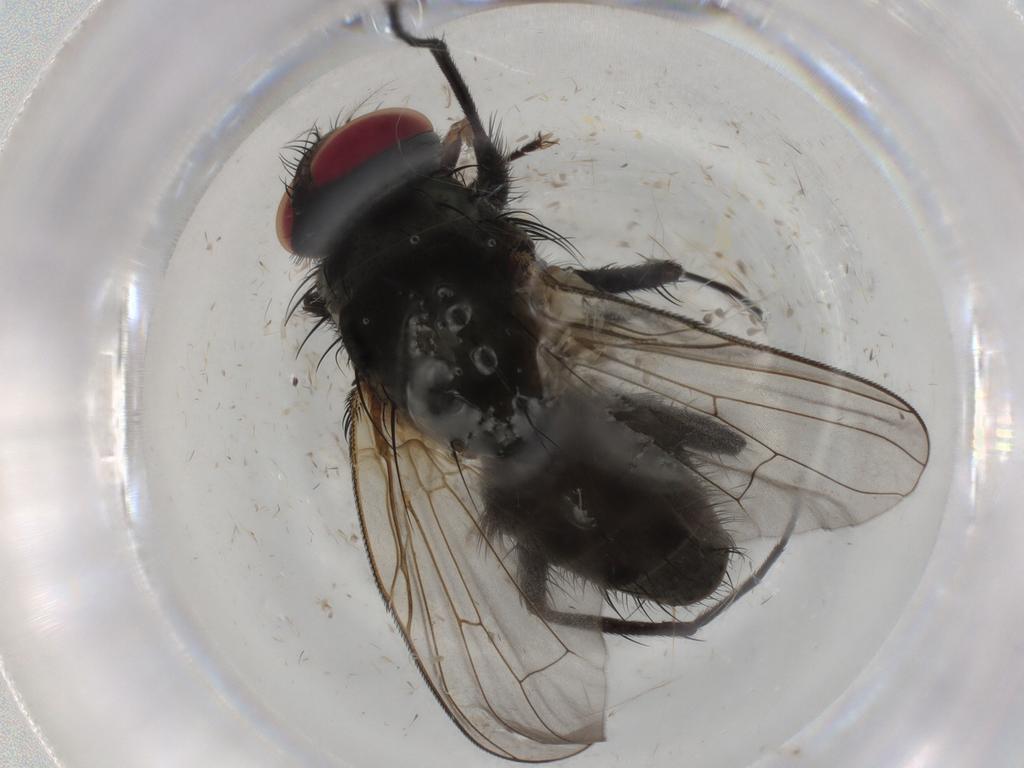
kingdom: Animalia
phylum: Arthropoda
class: Insecta
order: Diptera
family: Muscidae
